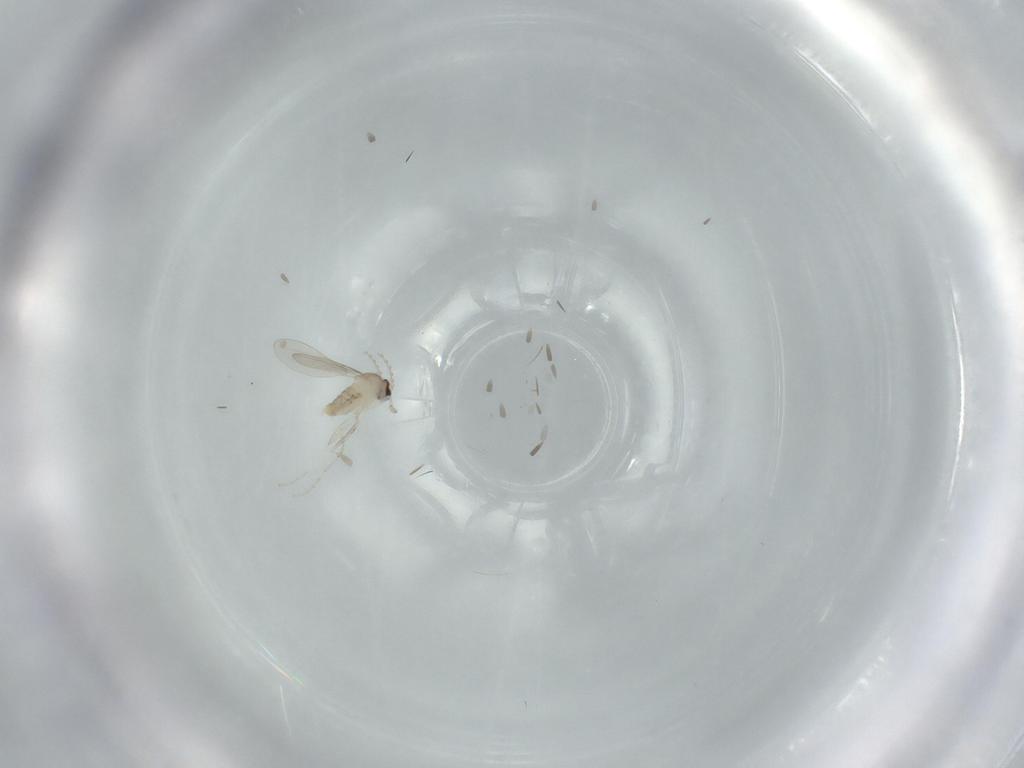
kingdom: Animalia
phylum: Arthropoda
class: Insecta
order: Diptera
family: Cecidomyiidae
